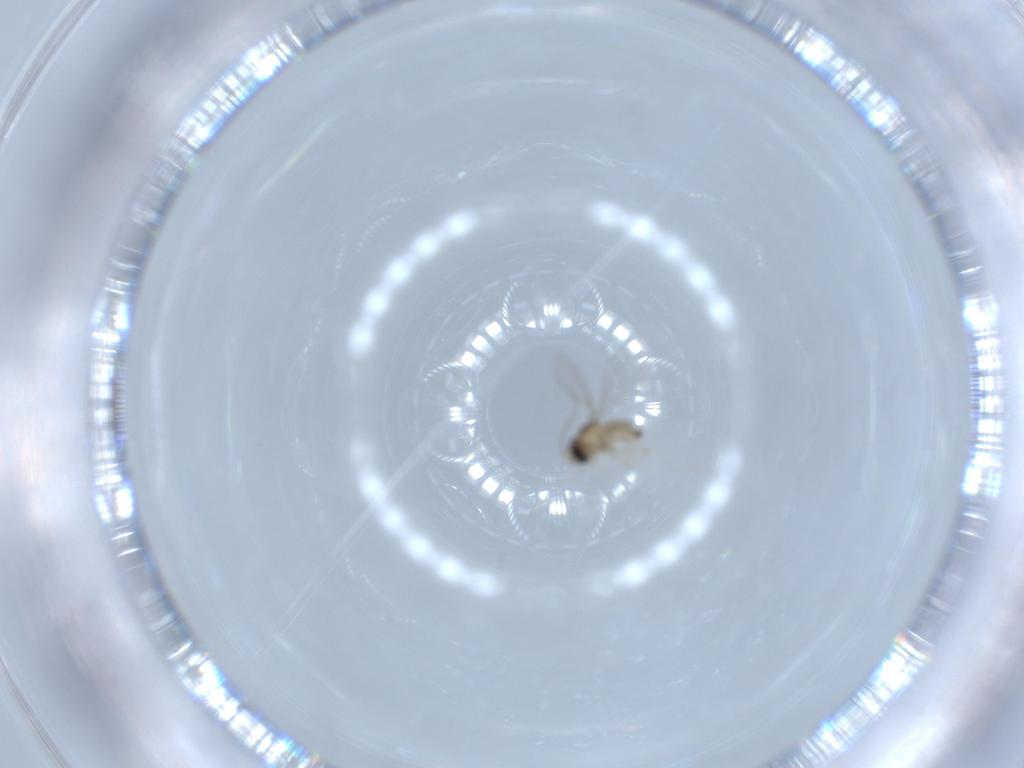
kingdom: Animalia
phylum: Arthropoda
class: Insecta
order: Diptera
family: Cecidomyiidae
